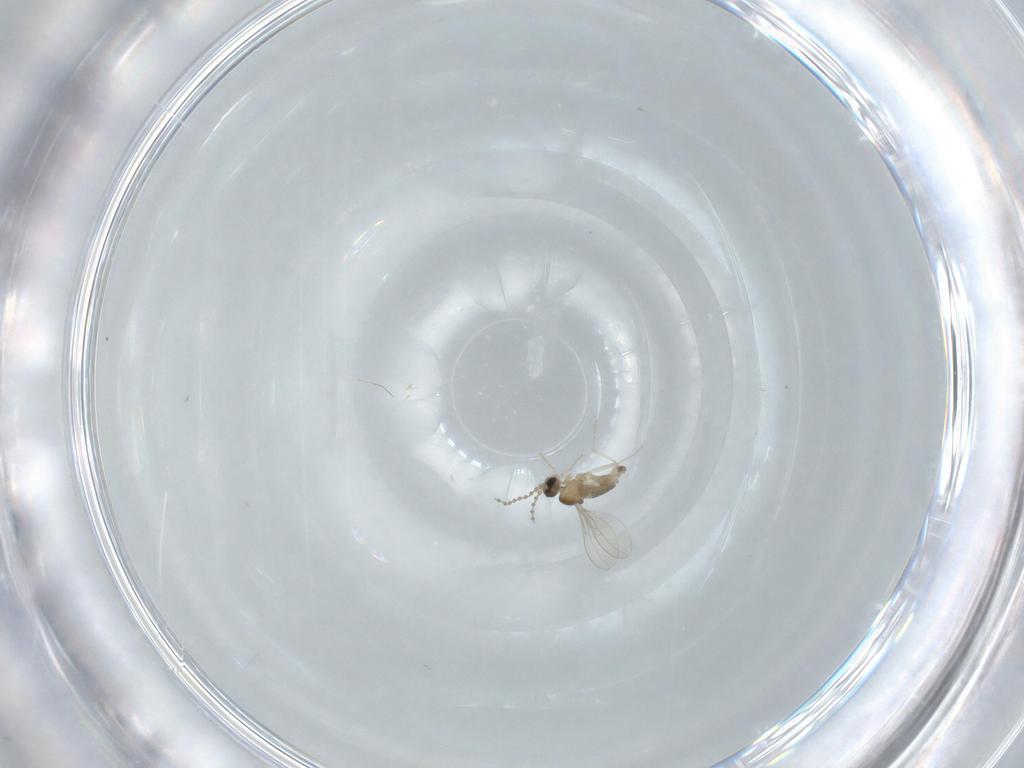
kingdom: Animalia
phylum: Arthropoda
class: Insecta
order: Diptera
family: Cecidomyiidae
